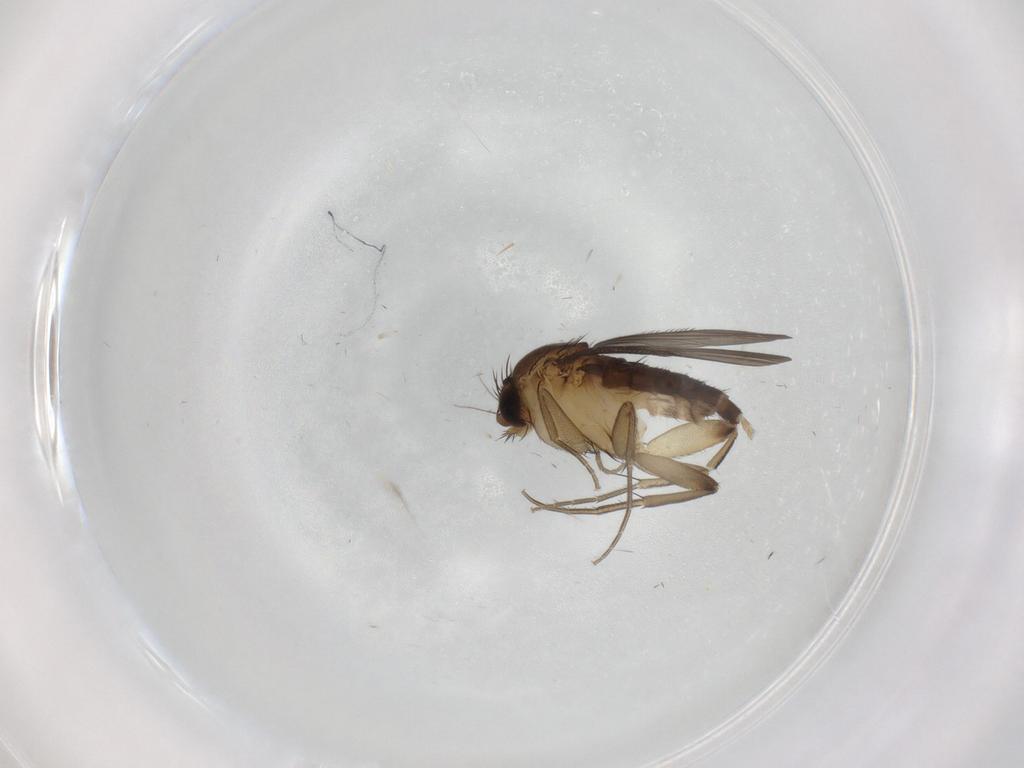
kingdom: Animalia
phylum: Arthropoda
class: Insecta
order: Diptera
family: Phoridae
